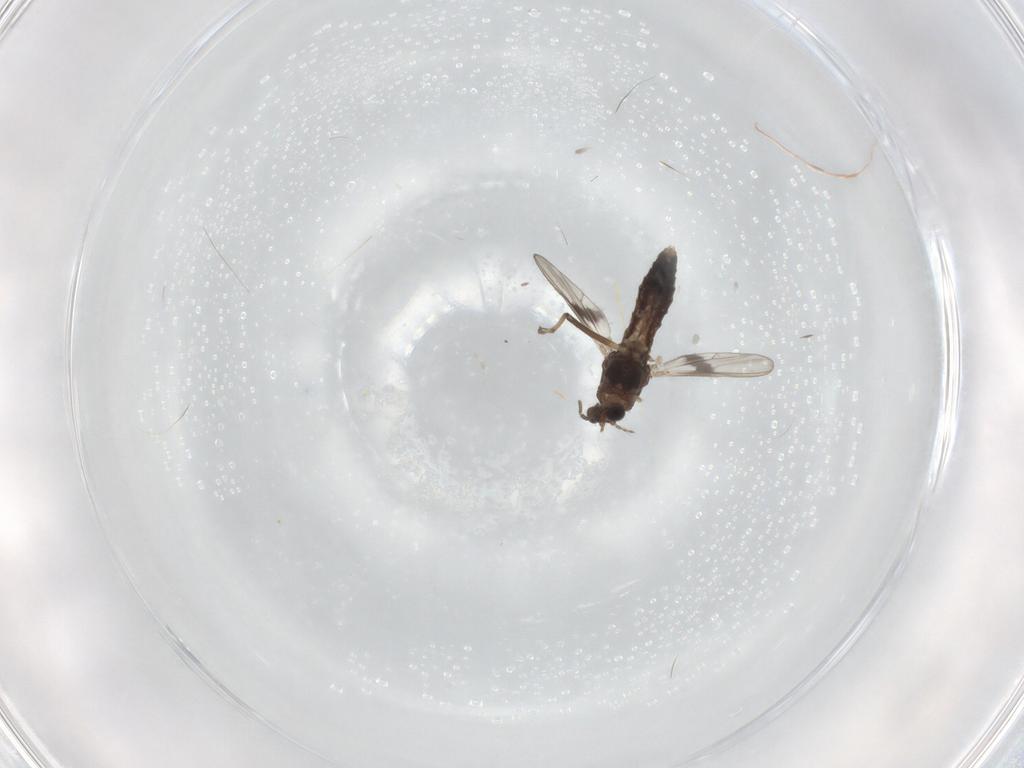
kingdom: Animalia
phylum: Arthropoda
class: Insecta
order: Diptera
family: Chironomidae
